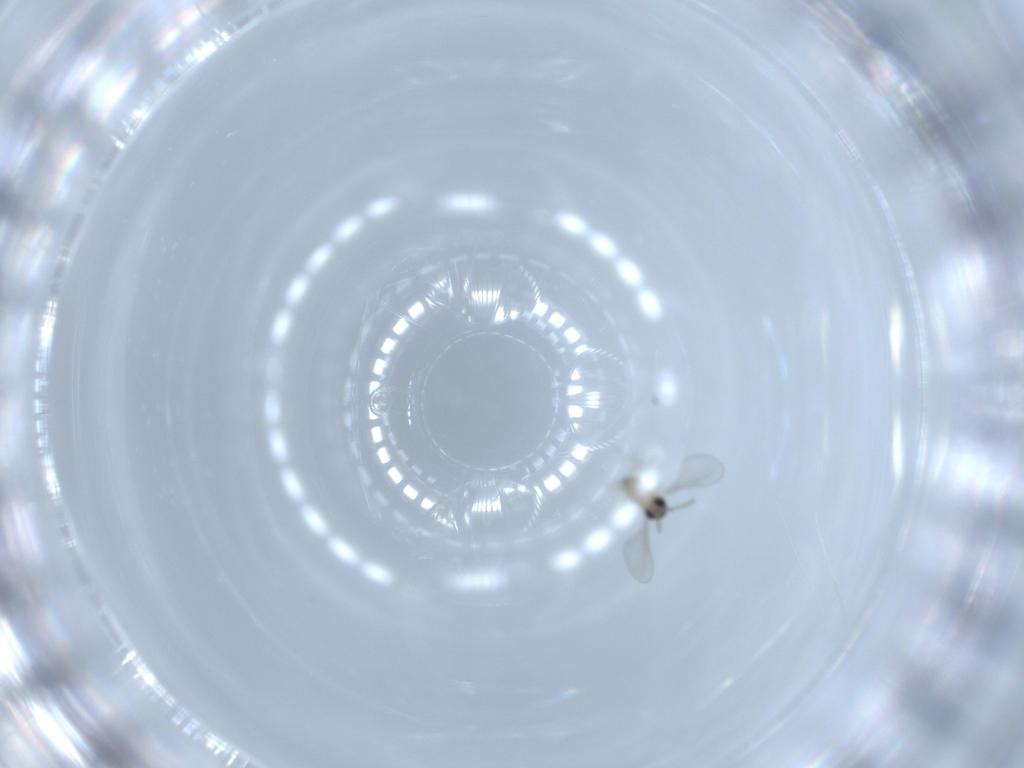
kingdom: Animalia
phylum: Arthropoda
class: Insecta
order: Diptera
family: Cecidomyiidae
